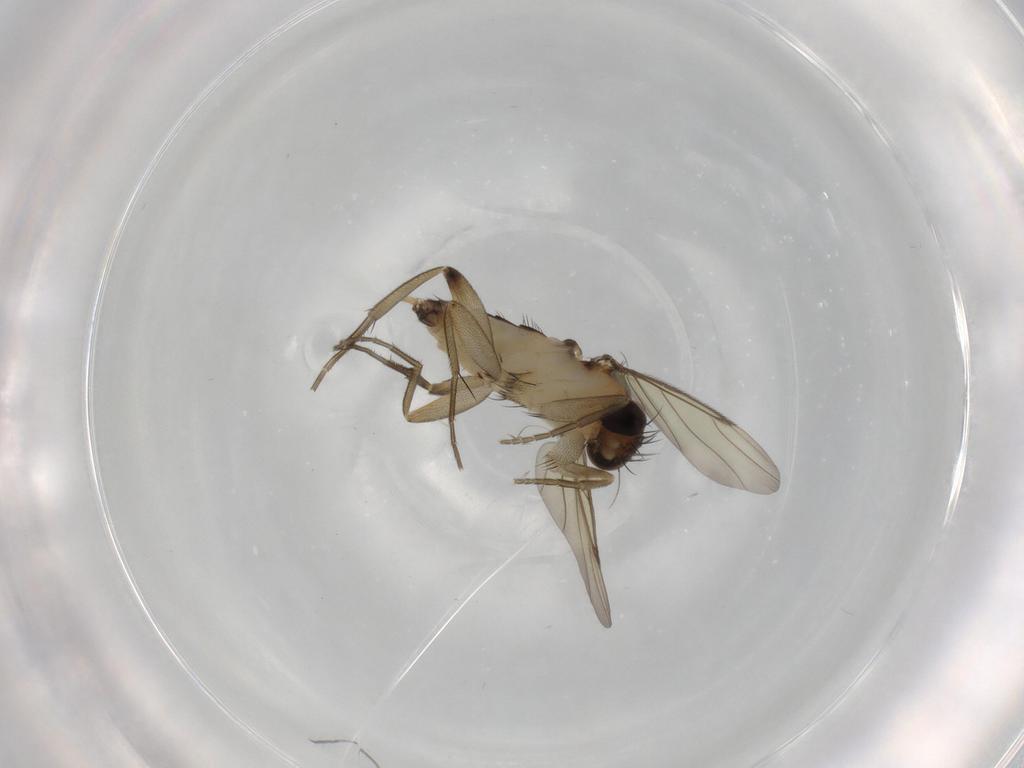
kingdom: Animalia
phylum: Arthropoda
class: Insecta
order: Diptera
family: Phoridae
